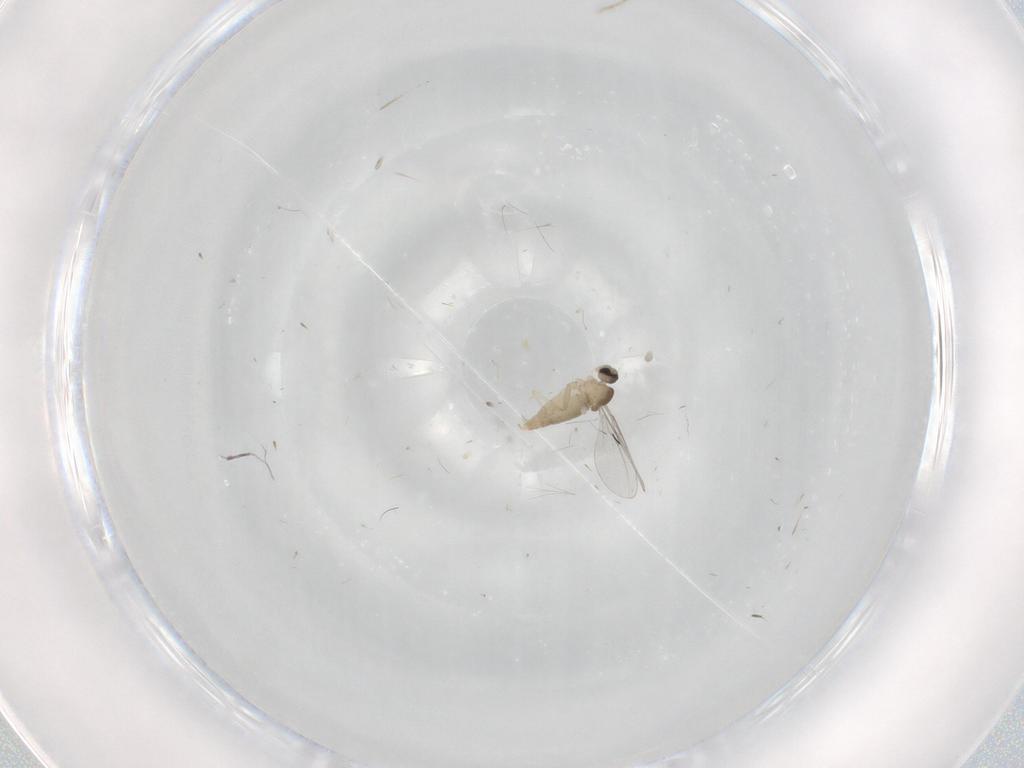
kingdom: Animalia
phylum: Arthropoda
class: Insecta
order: Diptera
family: Cecidomyiidae
